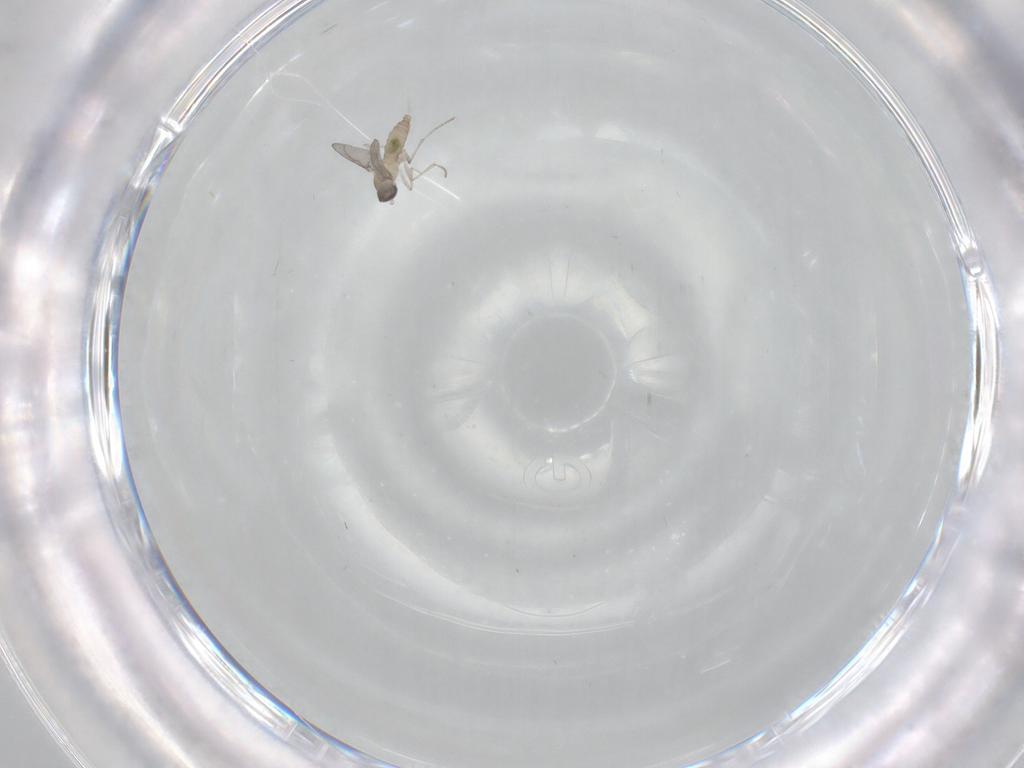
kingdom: Animalia
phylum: Arthropoda
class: Insecta
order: Diptera
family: Cecidomyiidae
